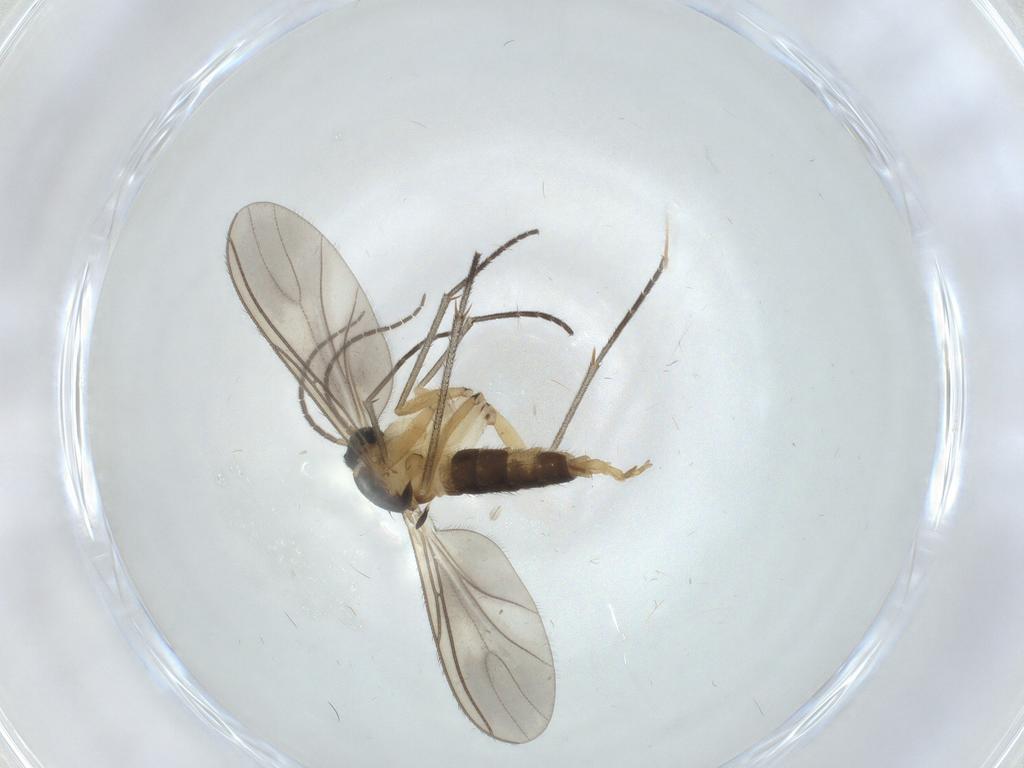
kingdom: Animalia
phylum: Arthropoda
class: Insecta
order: Diptera
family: Sciaridae
